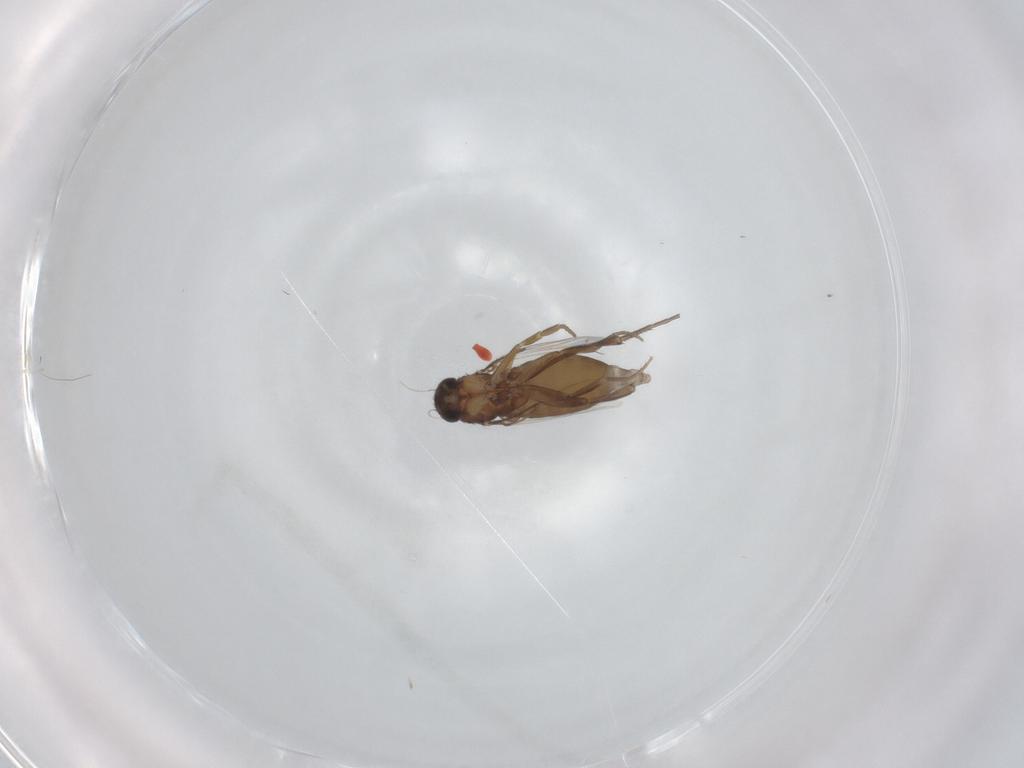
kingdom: Animalia
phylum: Arthropoda
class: Insecta
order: Diptera
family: Phoridae
